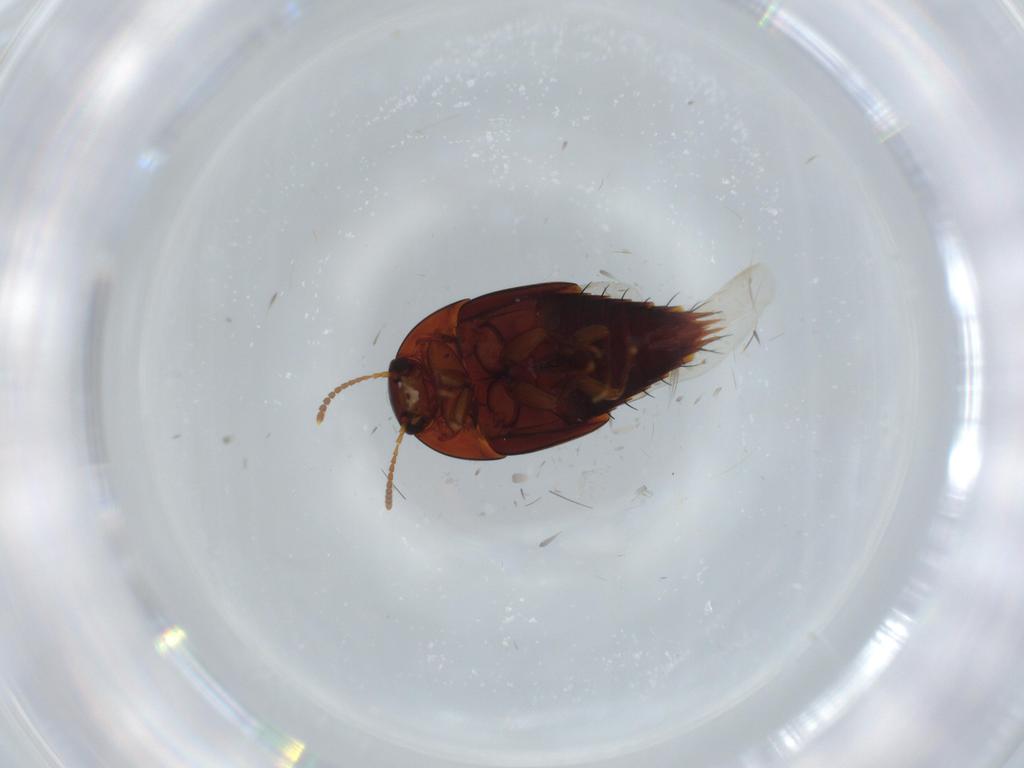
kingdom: Animalia
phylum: Arthropoda
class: Insecta
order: Coleoptera
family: Staphylinidae
